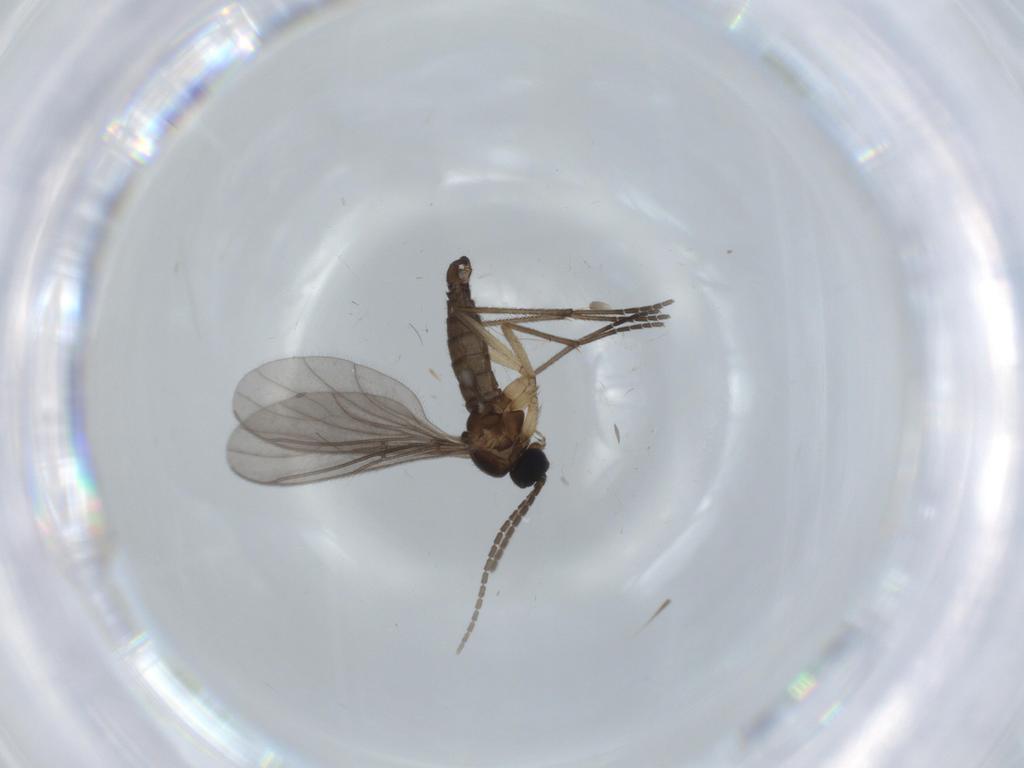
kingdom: Animalia
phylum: Arthropoda
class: Insecta
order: Diptera
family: Sciaridae
